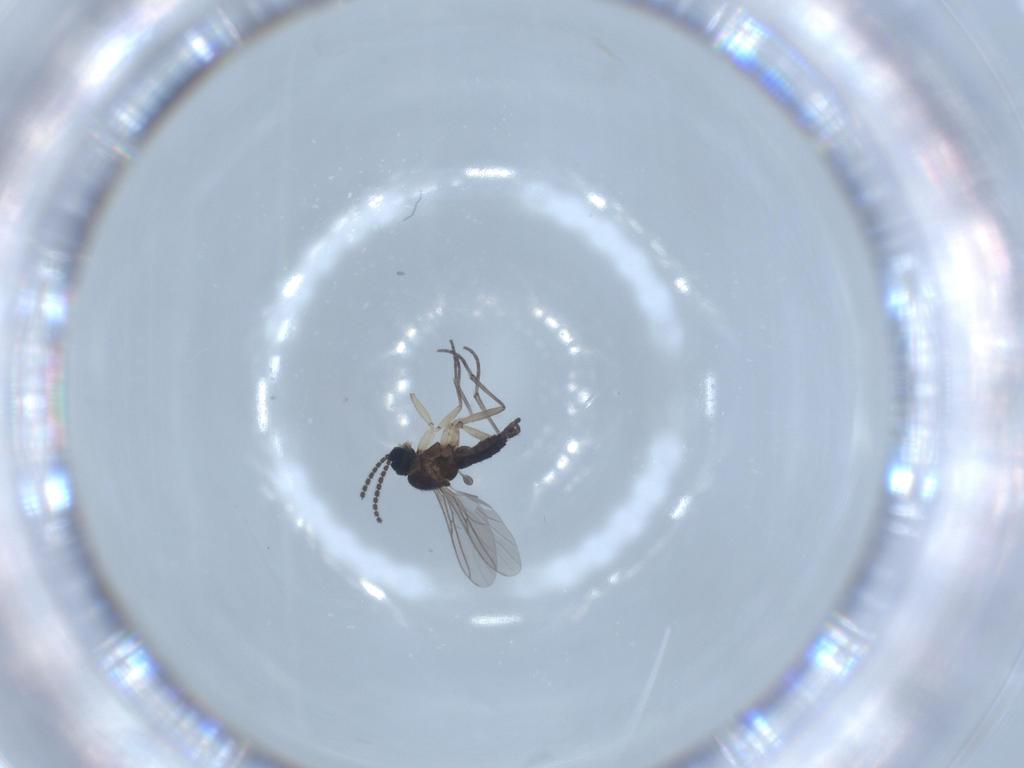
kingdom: Animalia
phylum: Arthropoda
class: Insecta
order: Diptera
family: Sciaridae
